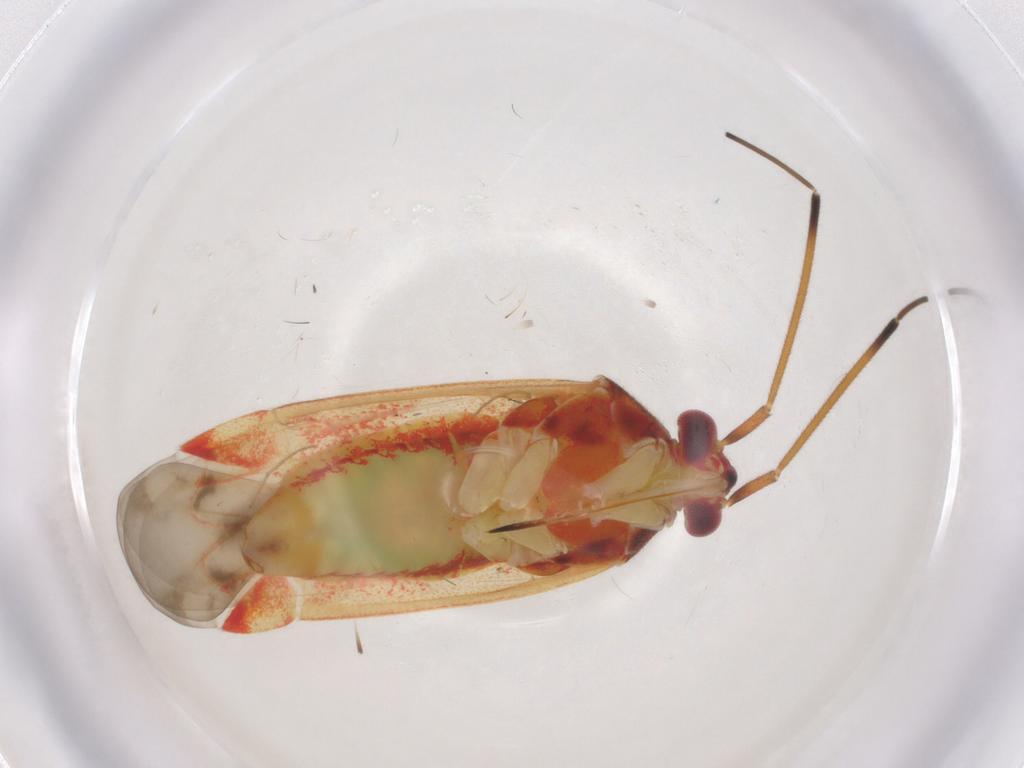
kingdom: Animalia
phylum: Arthropoda
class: Insecta
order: Hemiptera
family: Miridae
